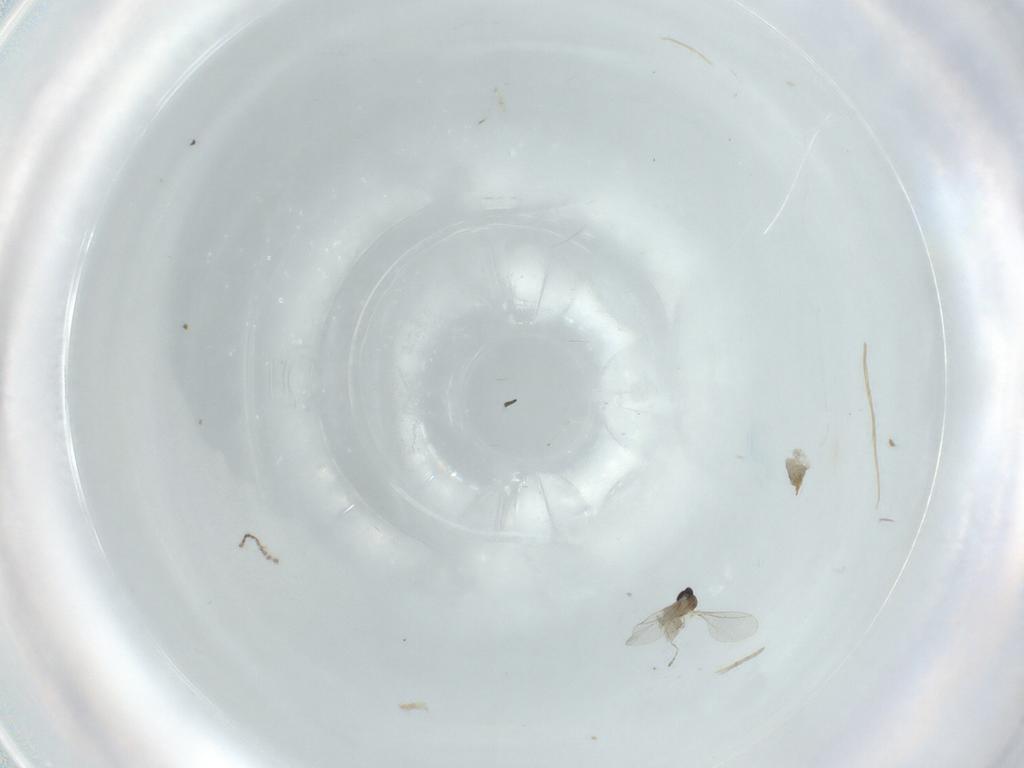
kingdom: Animalia
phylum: Arthropoda
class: Insecta
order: Diptera
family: Cecidomyiidae
